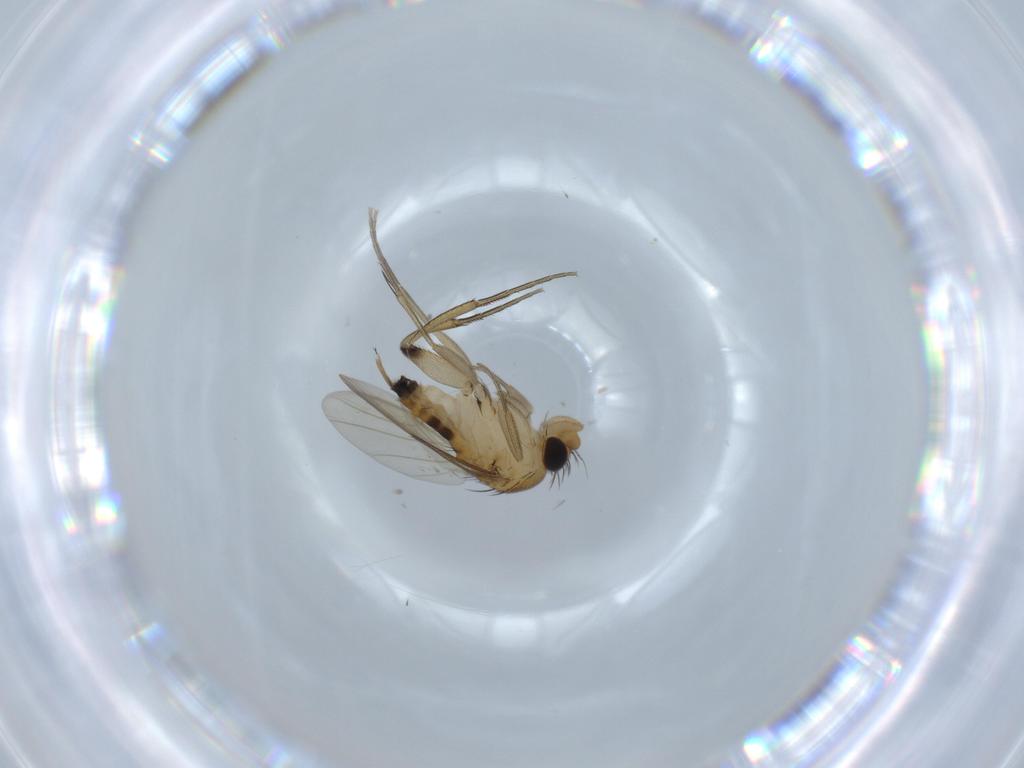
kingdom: Animalia
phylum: Arthropoda
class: Insecta
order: Diptera
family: Phoridae
